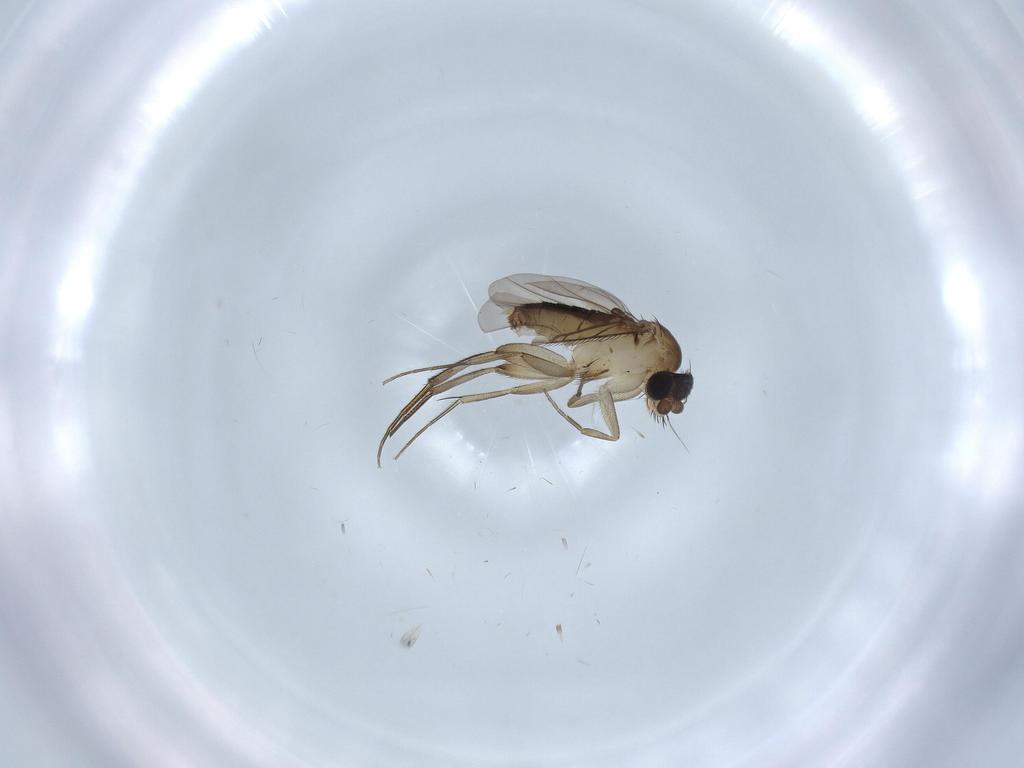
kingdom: Animalia
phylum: Arthropoda
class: Insecta
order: Diptera
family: Phoridae
